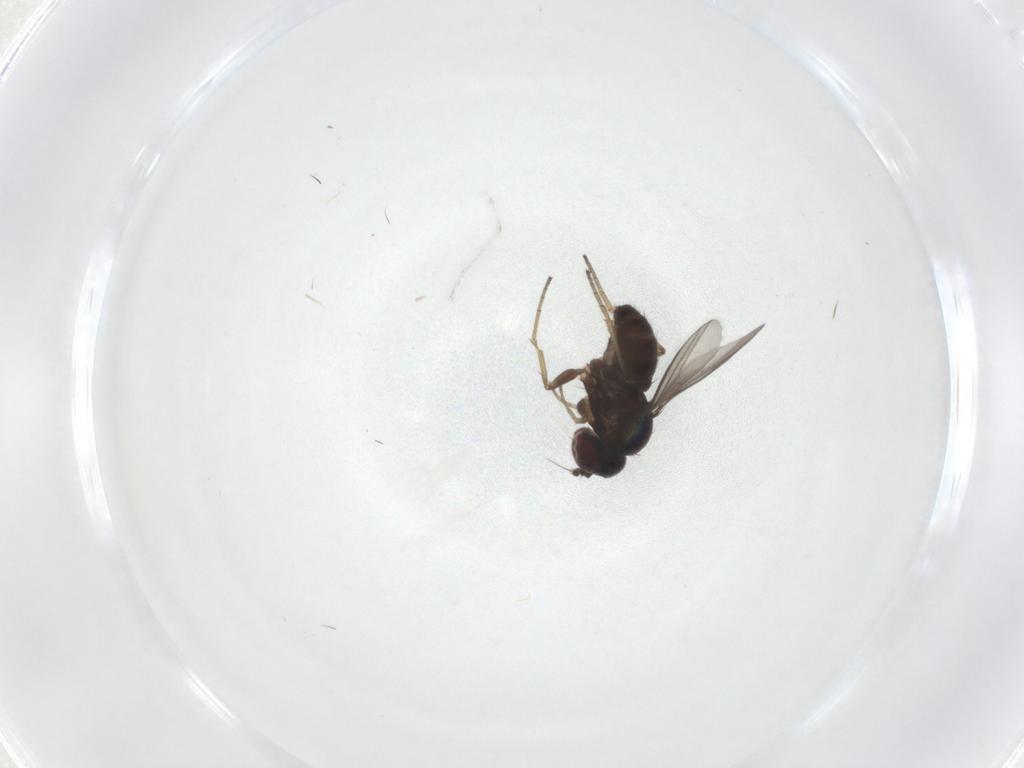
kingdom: Animalia
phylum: Arthropoda
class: Insecta
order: Diptera
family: Dolichopodidae
